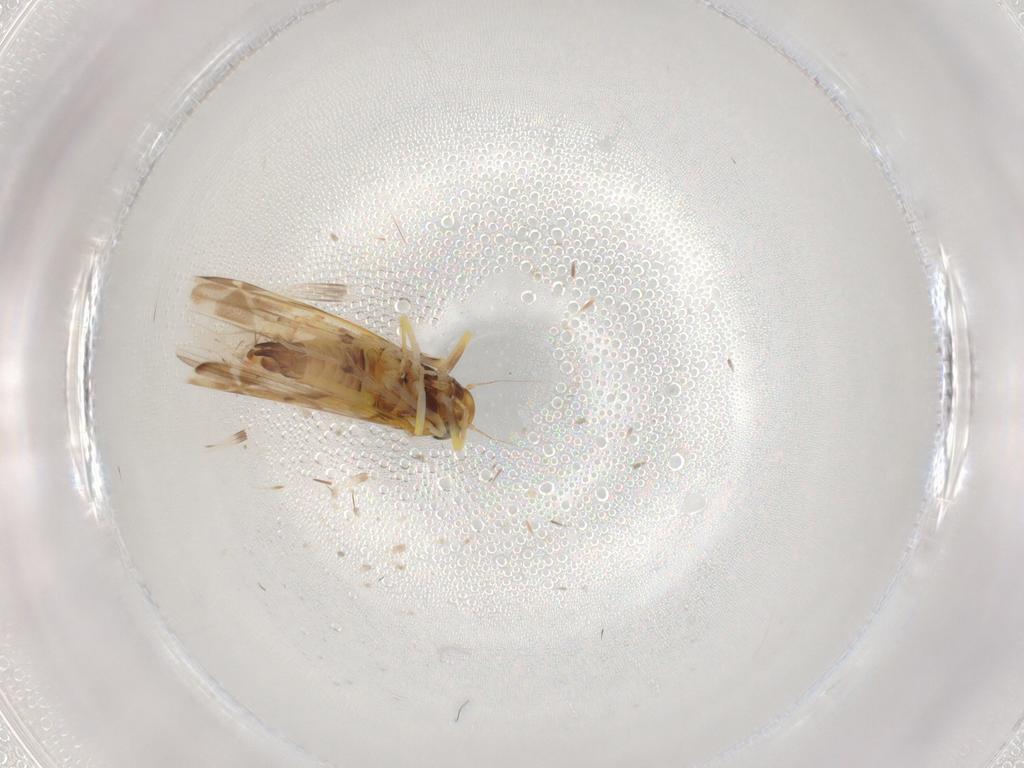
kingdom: Animalia
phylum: Arthropoda
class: Insecta
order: Hemiptera
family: Cicadellidae
